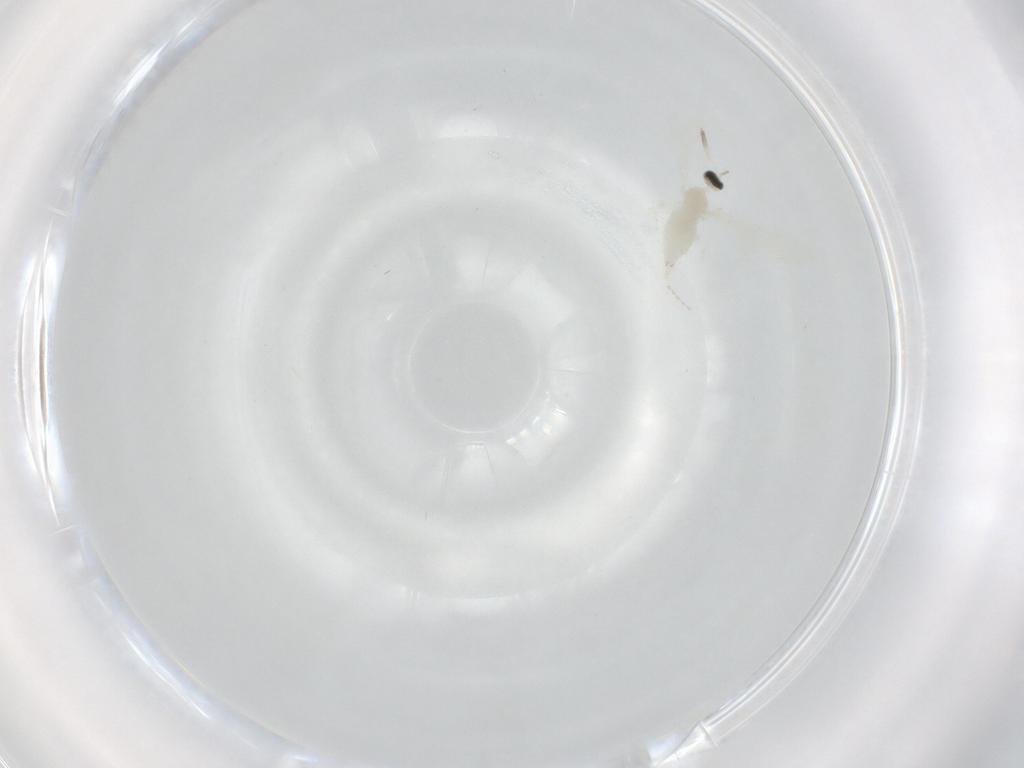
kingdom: Animalia
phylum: Arthropoda
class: Insecta
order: Diptera
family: Cecidomyiidae
